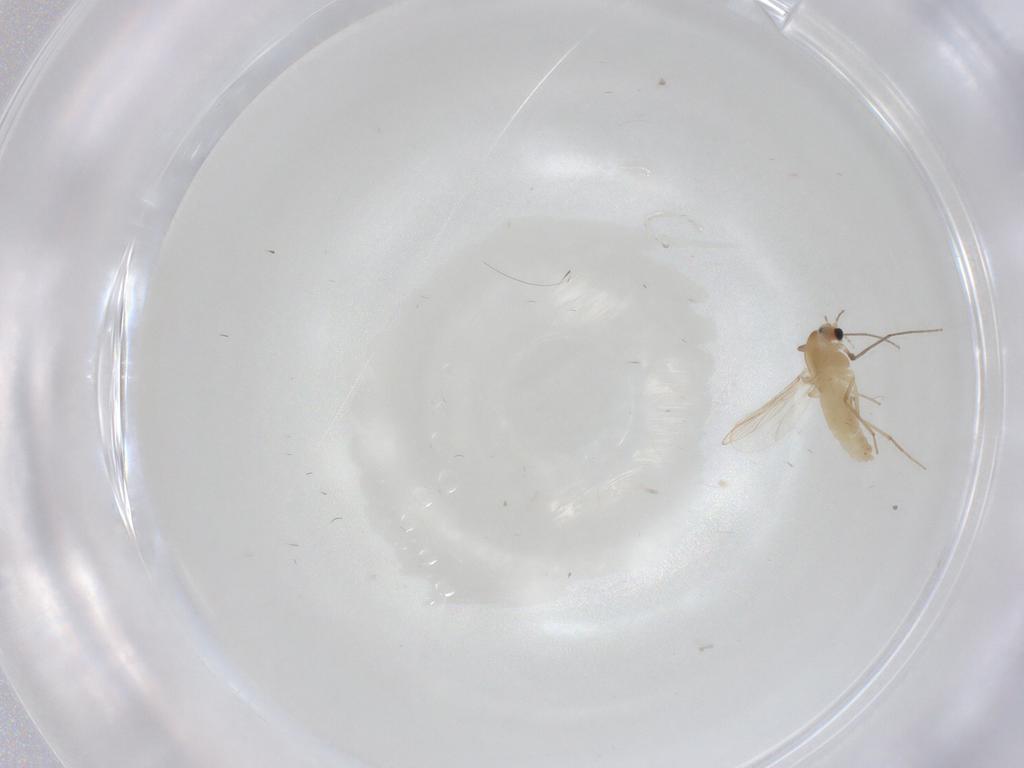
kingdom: Animalia
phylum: Arthropoda
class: Insecta
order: Diptera
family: Chironomidae
